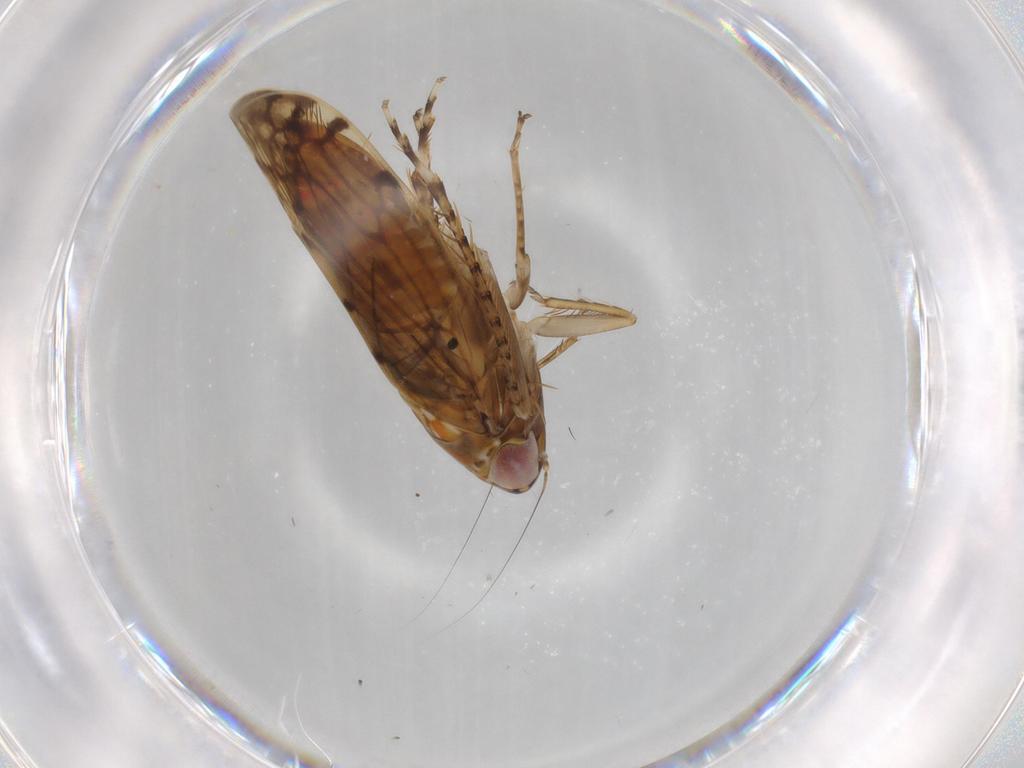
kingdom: Animalia
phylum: Arthropoda
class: Insecta
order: Hemiptera
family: Cicadellidae
